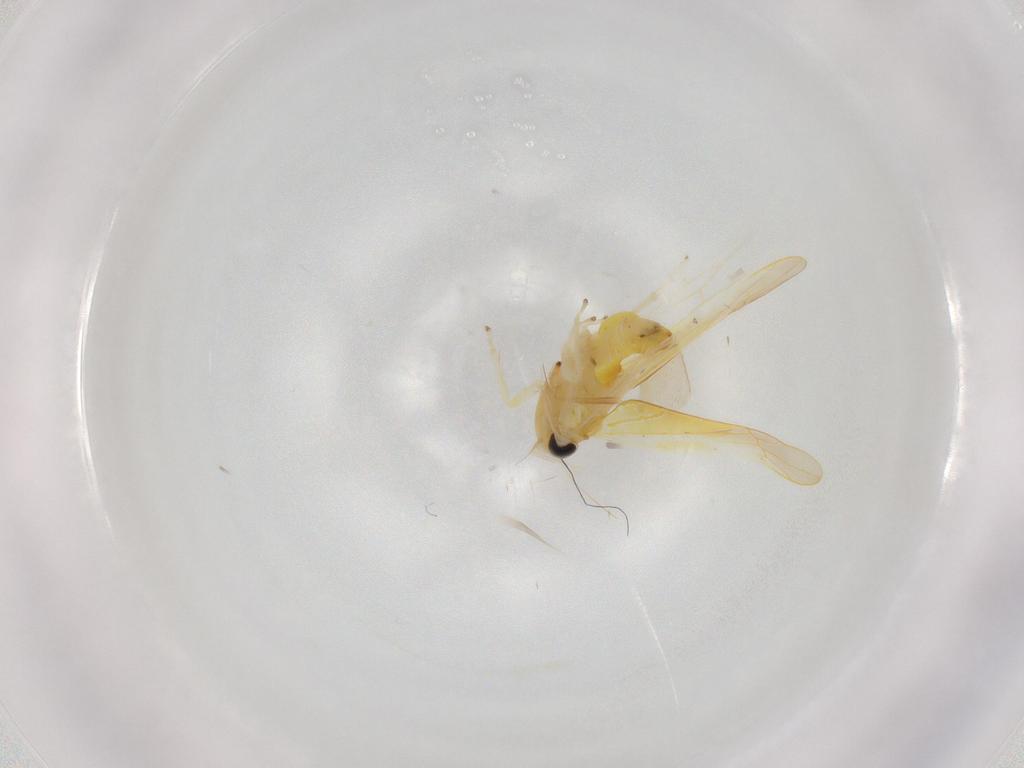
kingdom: Animalia
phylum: Arthropoda
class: Insecta
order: Hemiptera
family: Cicadellidae
